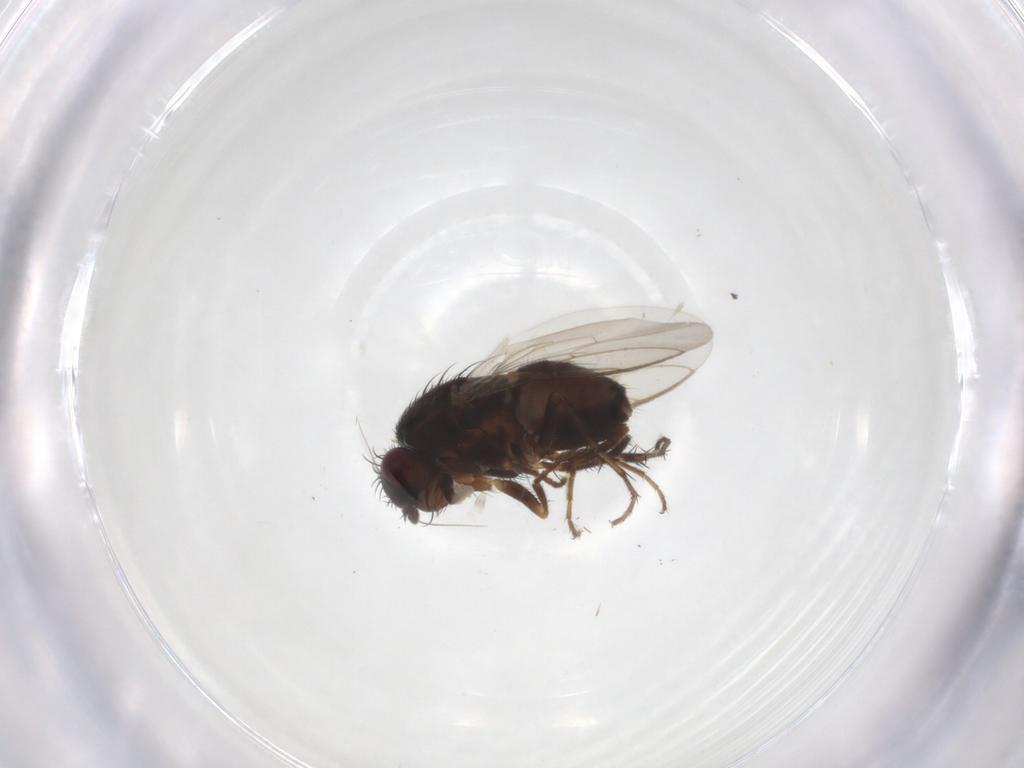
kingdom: Animalia
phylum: Arthropoda
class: Insecta
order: Diptera
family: Sphaeroceridae
